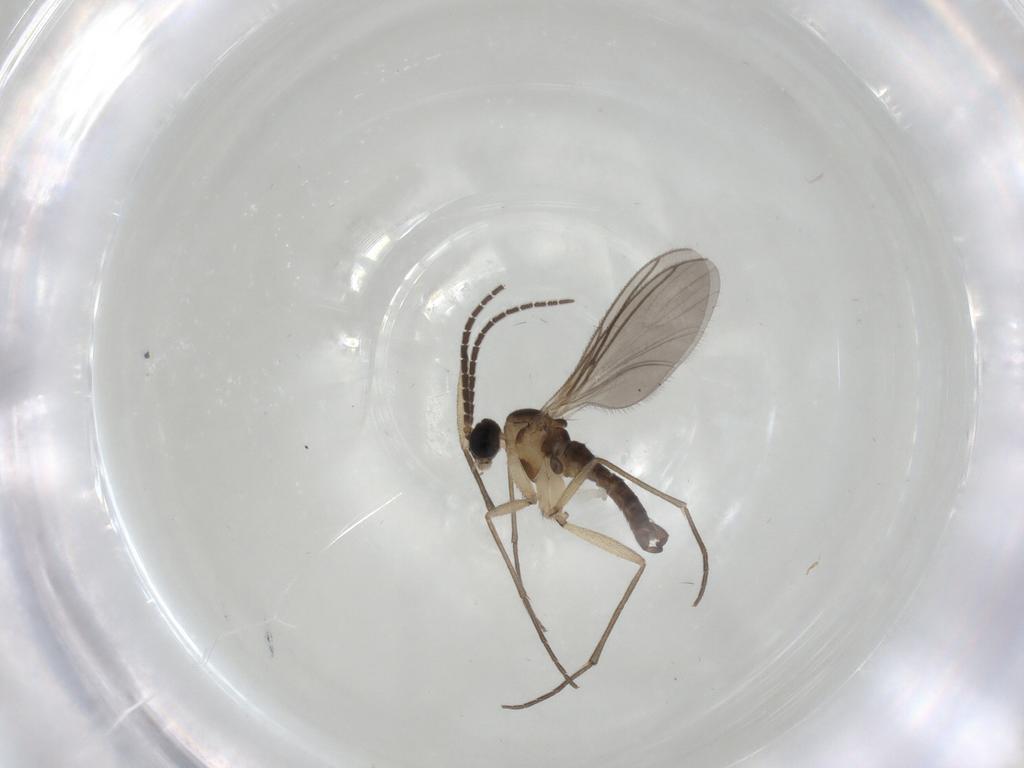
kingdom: Animalia
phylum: Arthropoda
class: Insecta
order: Diptera
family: Sciaridae
